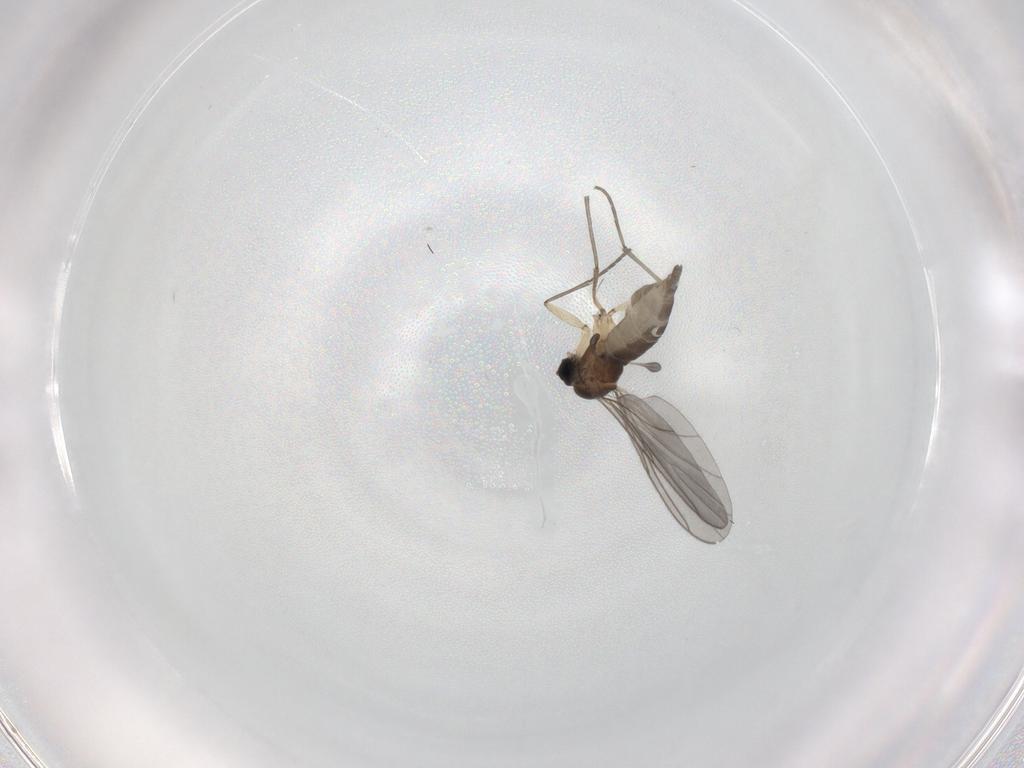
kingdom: Animalia
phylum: Arthropoda
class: Insecta
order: Diptera
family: Sciaridae
